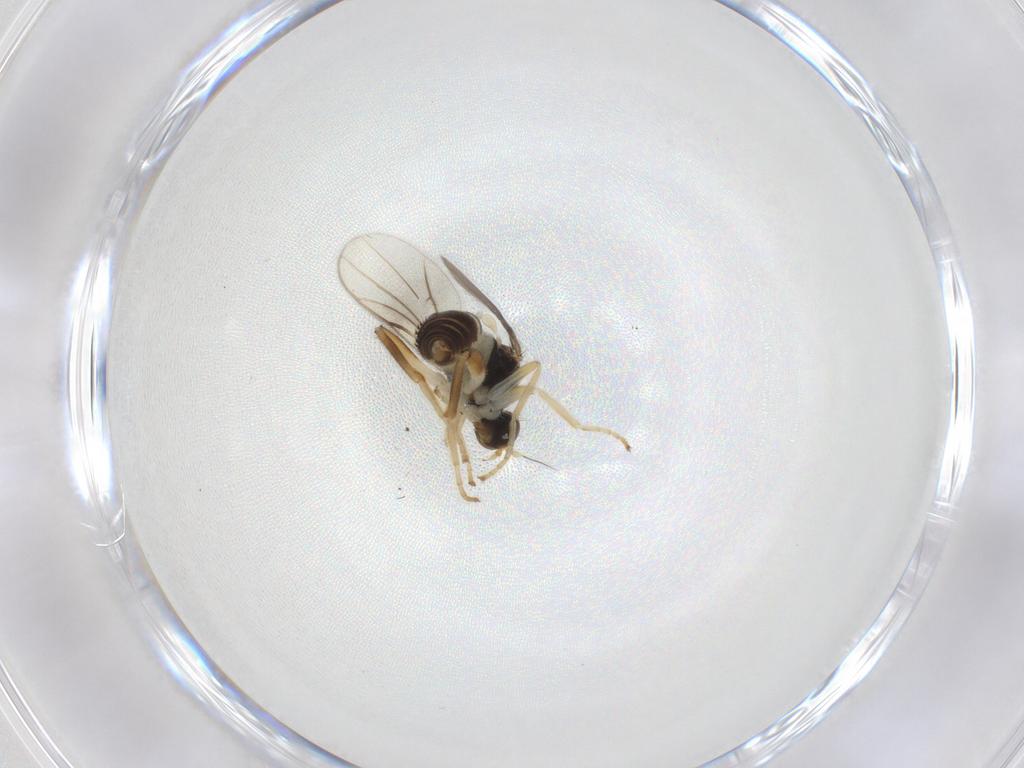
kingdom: Animalia
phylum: Arthropoda
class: Insecta
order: Diptera
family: Hybotidae
